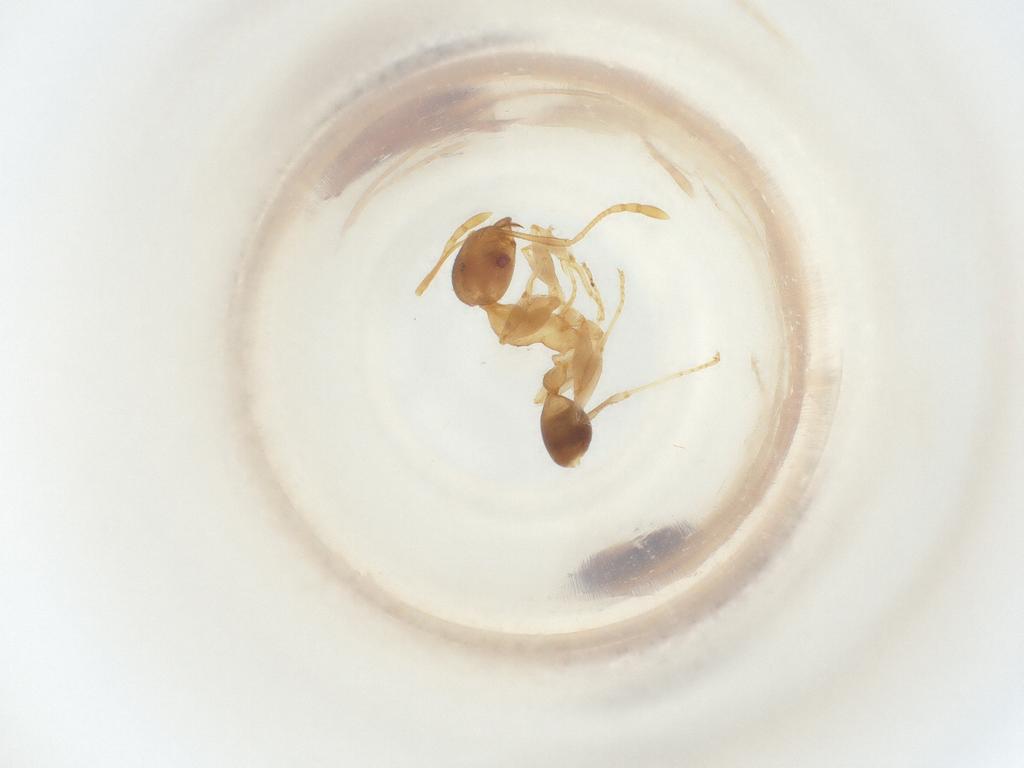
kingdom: Animalia
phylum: Arthropoda
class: Insecta
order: Hymenoptera
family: Formicidae
